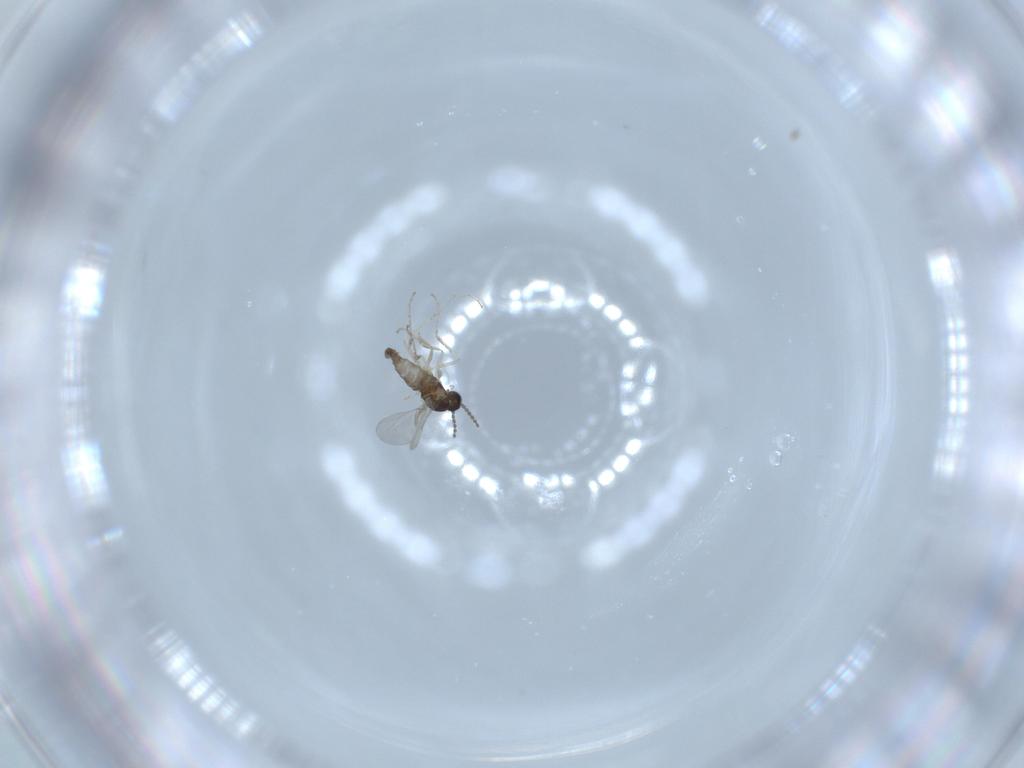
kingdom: Animalia
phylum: Arthropoda
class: Insecta
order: Diptera
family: Cecidomyiidae
